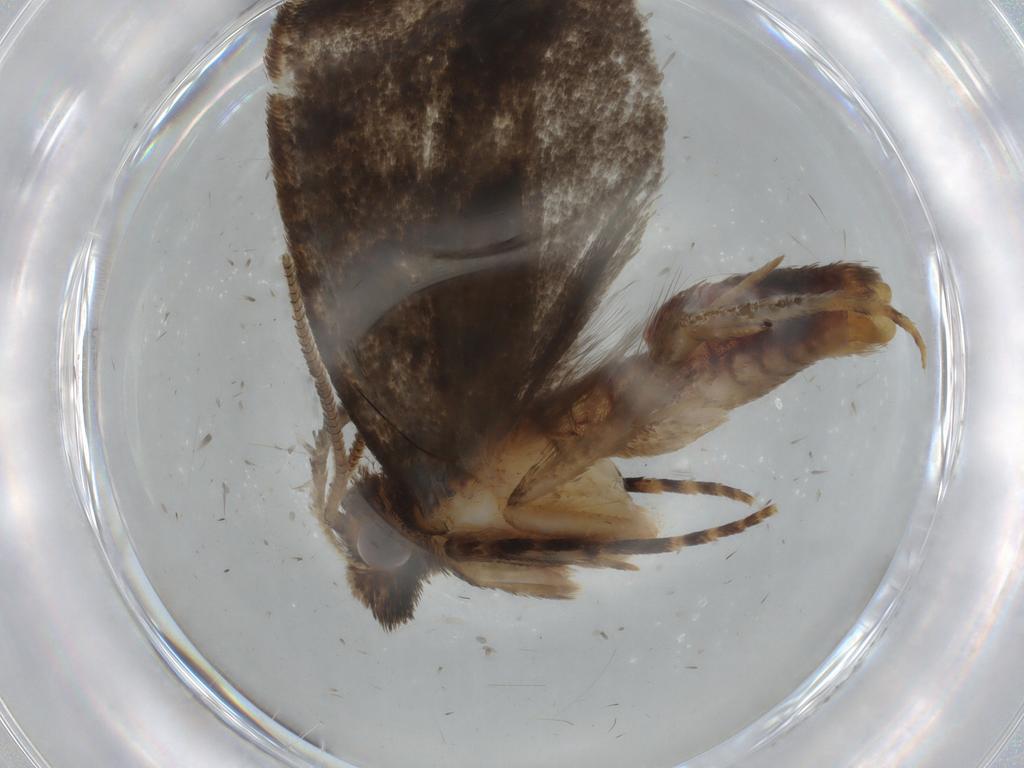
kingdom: Animalia
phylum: Arthropoda
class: Insecta
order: Lepidoptera
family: Tineidae
